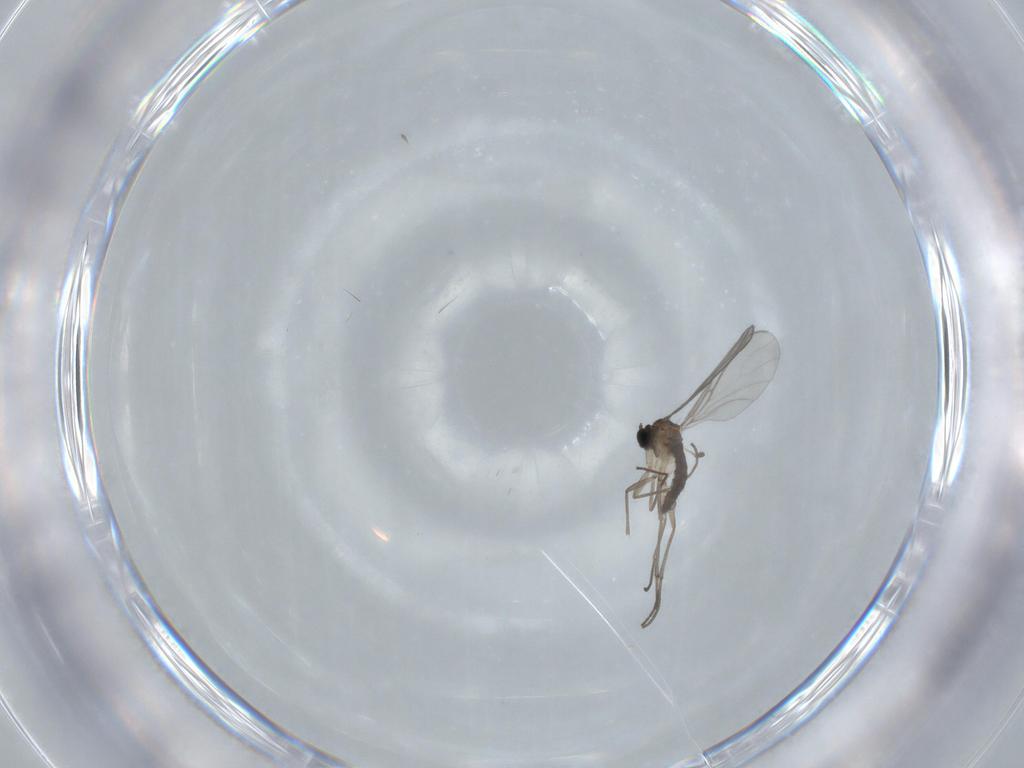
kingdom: Animalia
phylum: Arthropoda
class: Insecta
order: Diptera
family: Sciaridae
